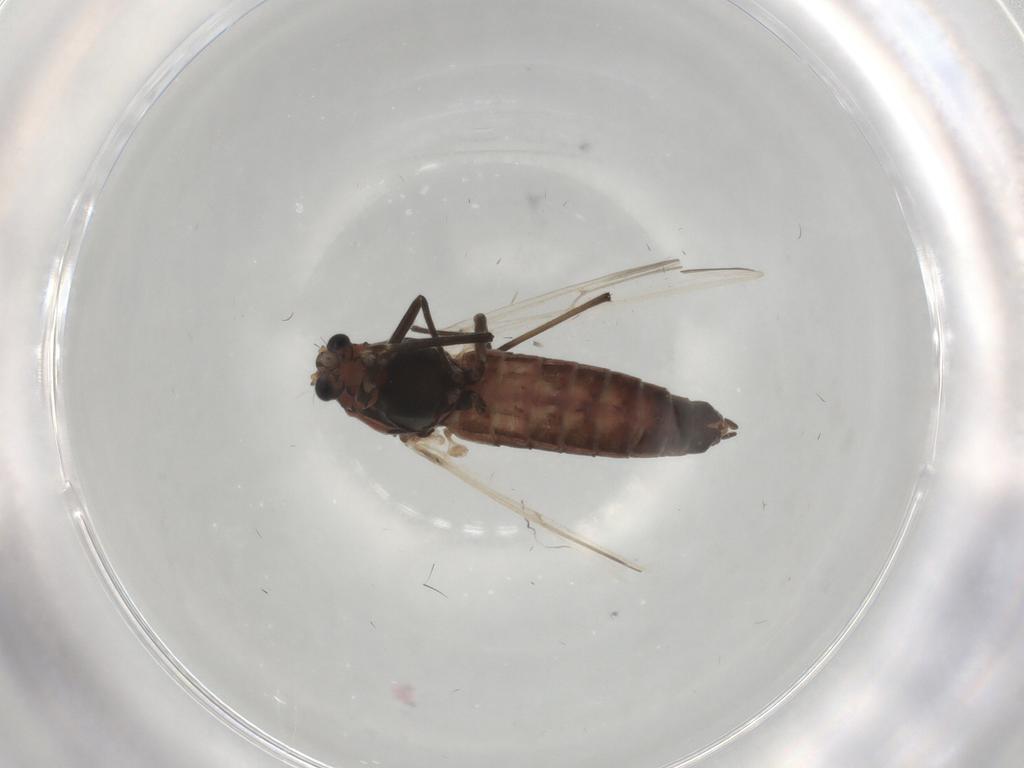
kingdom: Animalia
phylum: Arthropoda
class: Insecta
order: Diptera
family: Chironomidae
